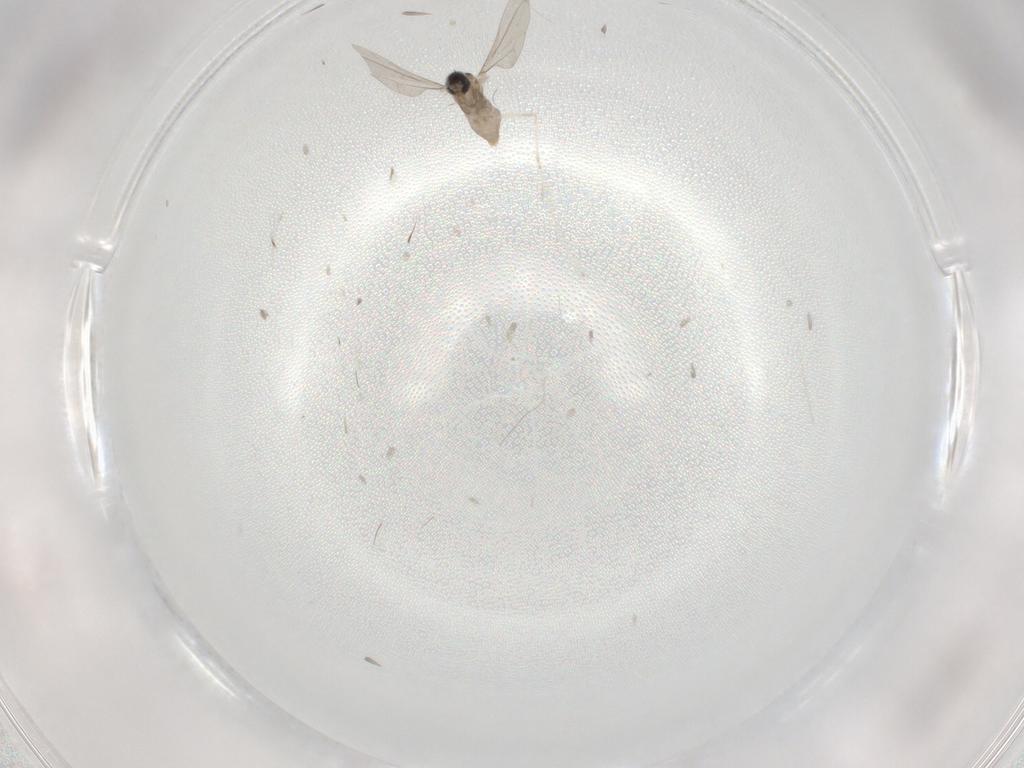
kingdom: Animalia
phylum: Arthropoda
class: Insecta
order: Diptera
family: Cecidomyiidae
